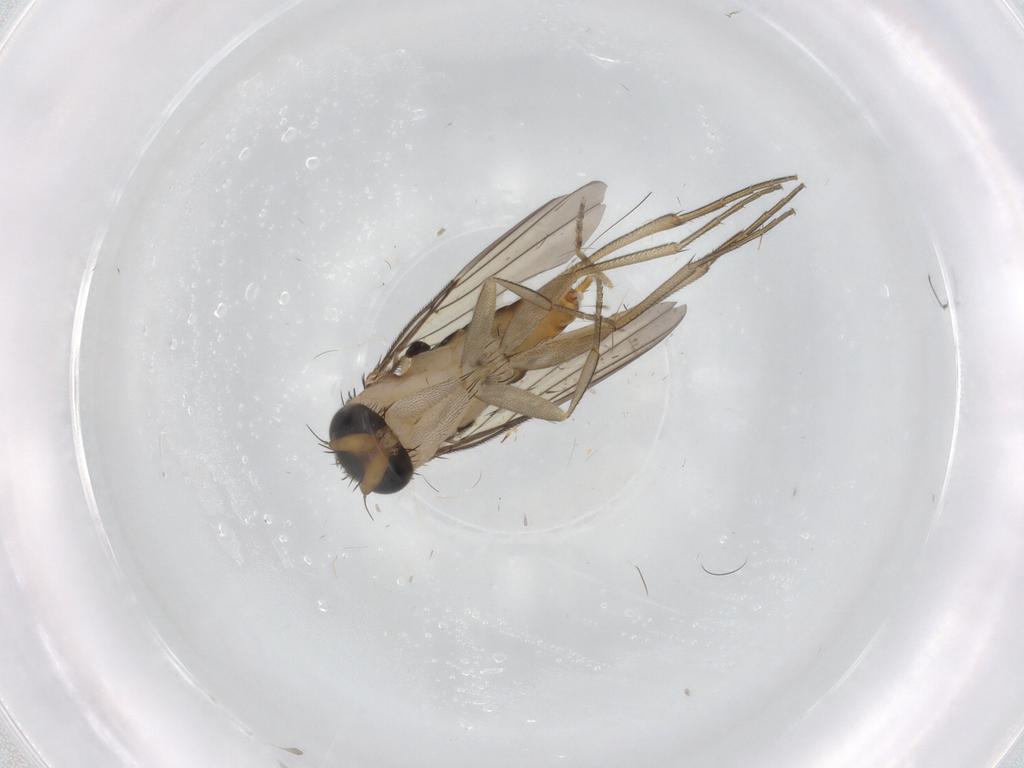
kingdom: Animalia
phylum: Arthropoda
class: Insecta
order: Diptera
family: Phoridae
